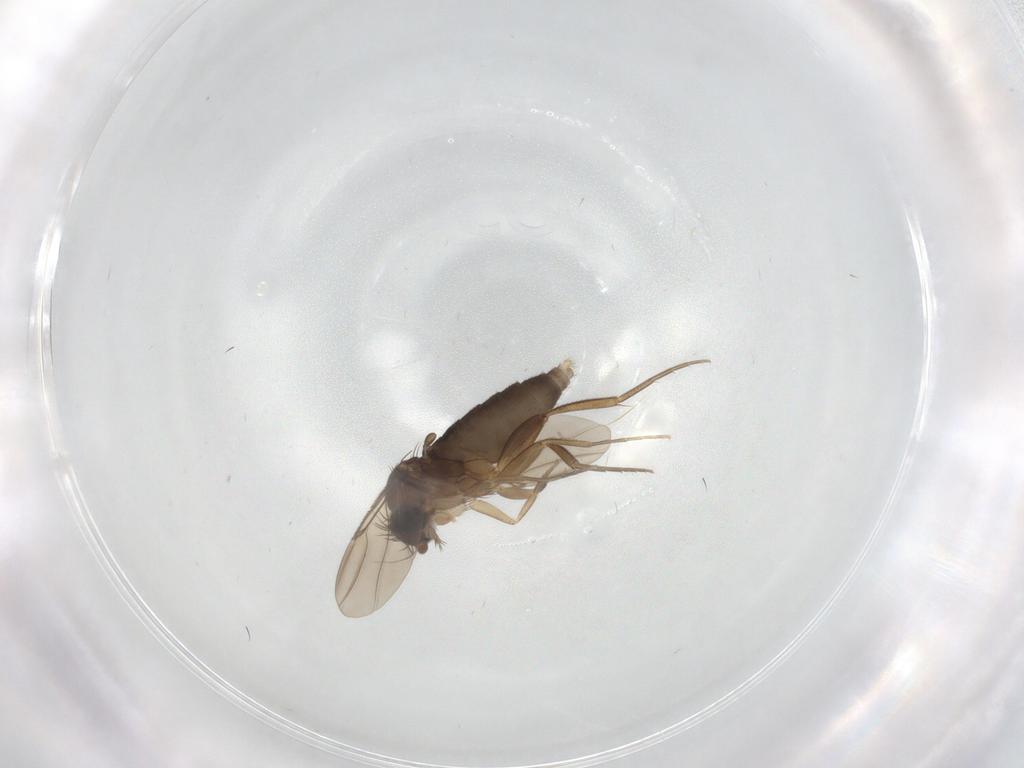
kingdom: Animalia
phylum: Arthropoda
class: Insecta
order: Diptera
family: Phoridae
